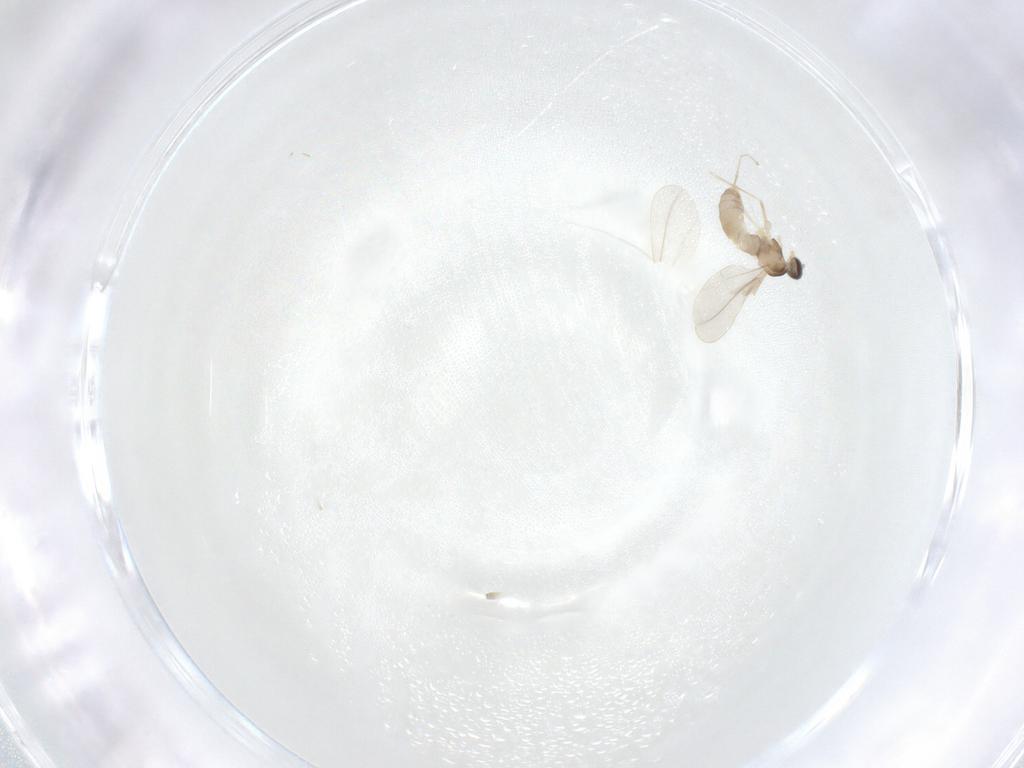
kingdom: Animalia
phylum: Arthropoda
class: Insecta
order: Diptera
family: Cecidomyiidae
